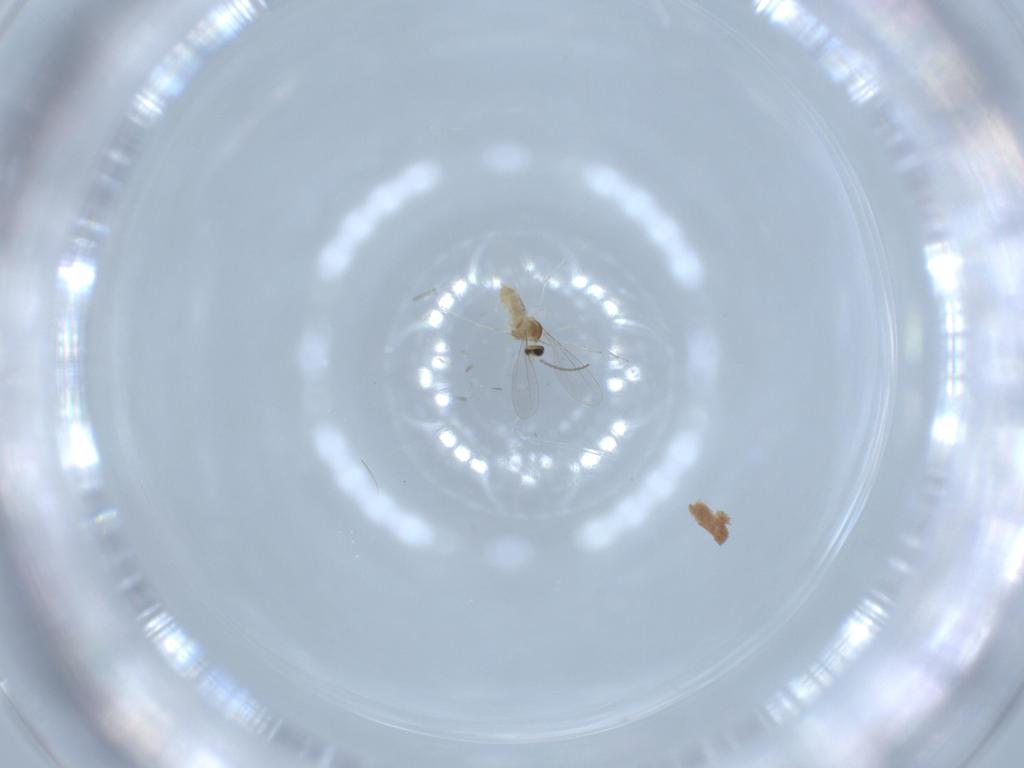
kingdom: Animalia
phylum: Arthropoda
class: Insecta
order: Diptera
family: Cecidomyiidae
